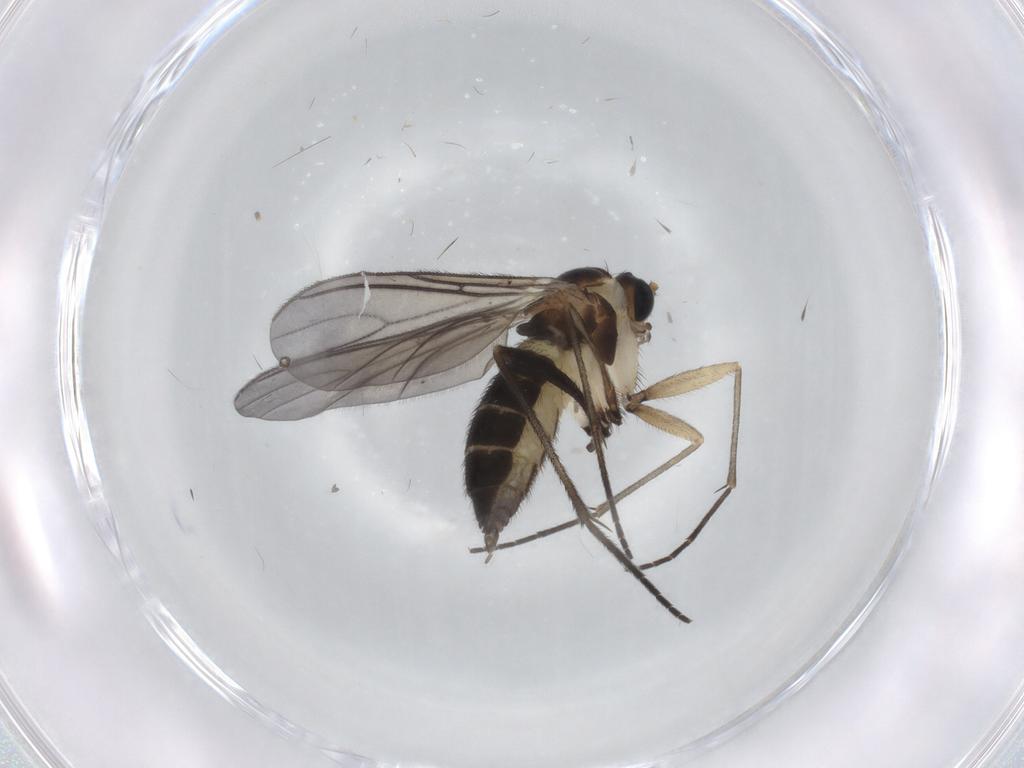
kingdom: Animalia
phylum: Arthropoda
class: Insecta
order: Diptera
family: Sciaridae
